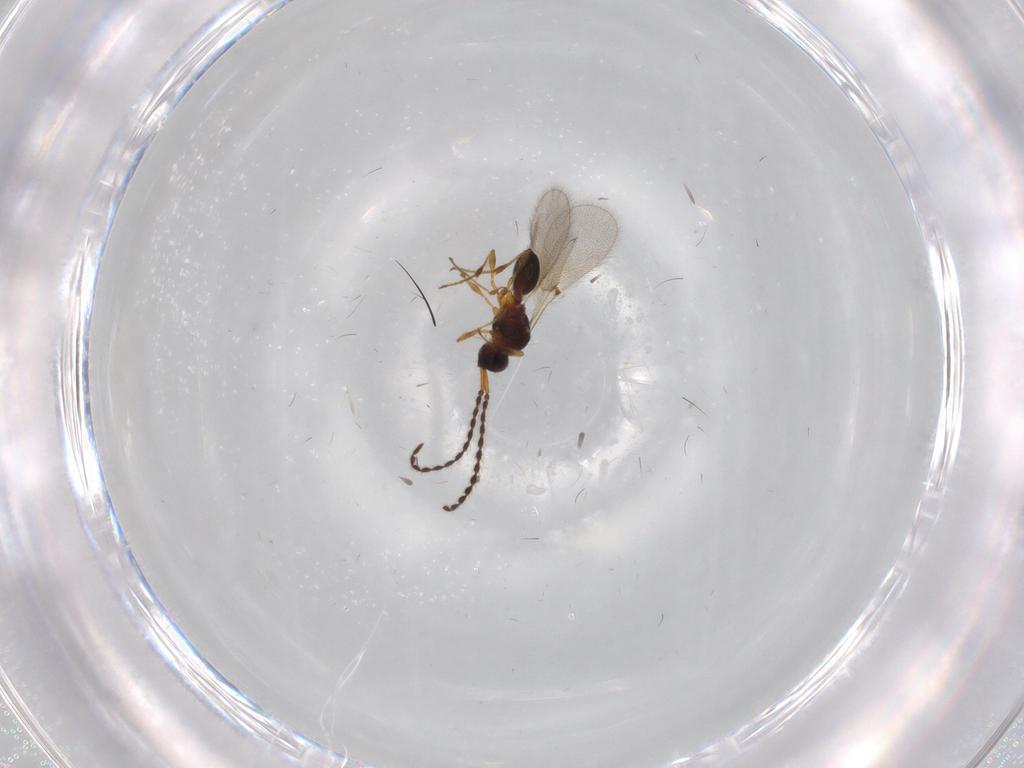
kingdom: Animalia
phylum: Arthropoda
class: Insecta
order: Hymenoptera
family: Diapriidae
